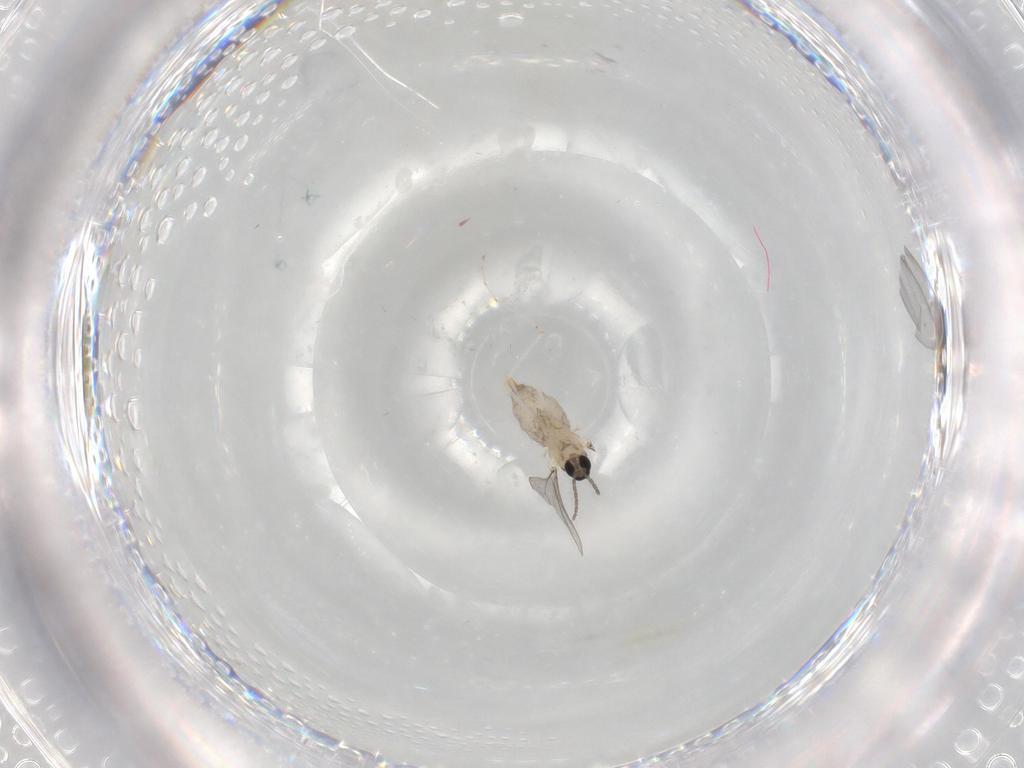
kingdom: Animalia
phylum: Arthropoda
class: Insecta
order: Diptera
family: Cecidomyiidae
